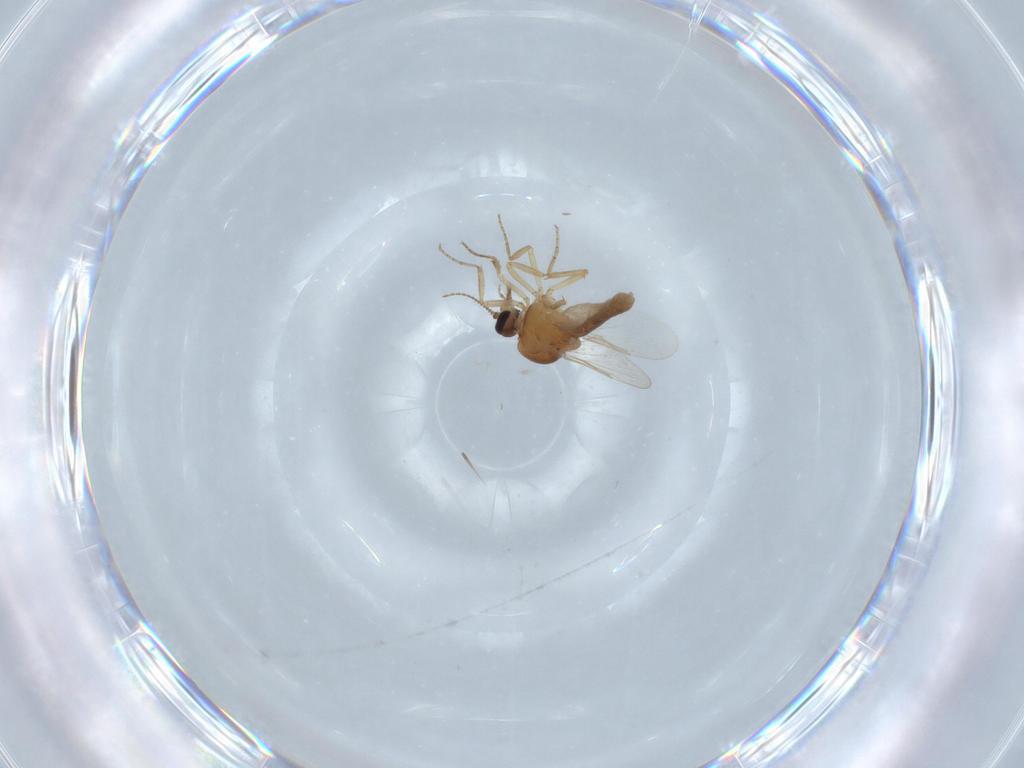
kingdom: Animalia
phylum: Arthropoda
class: Insecta
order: Diptera
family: Ceratopogonidae
